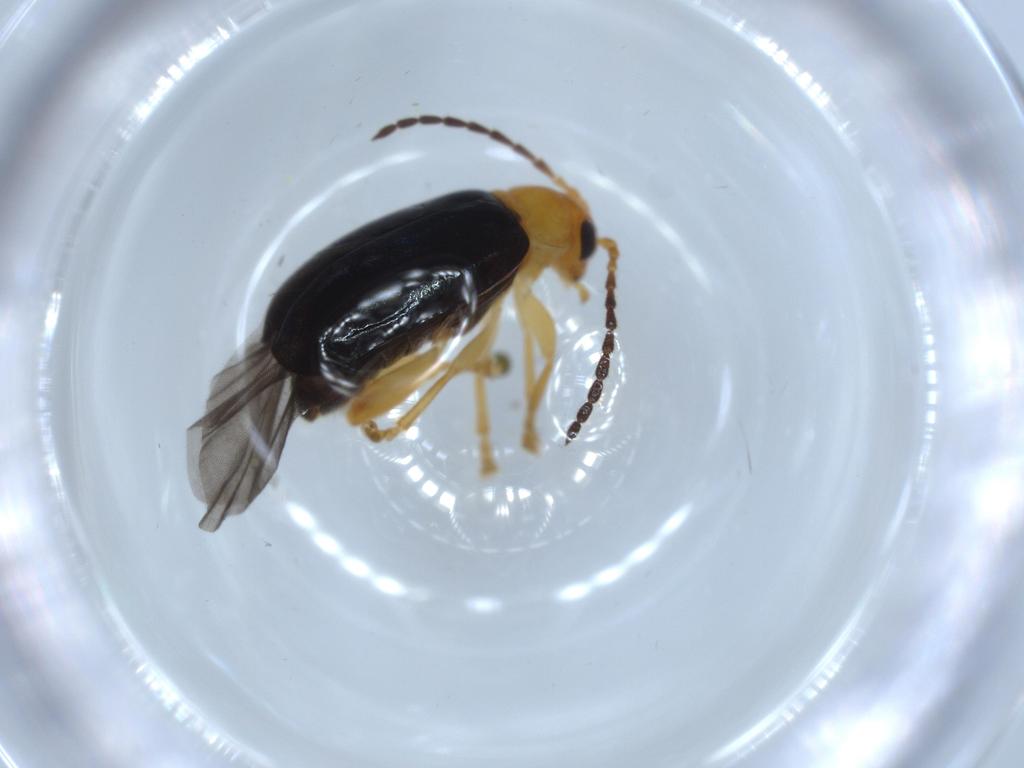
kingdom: Animalia
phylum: Arthropoda
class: Insecta
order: Coleoptera
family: Chrysomelidae
